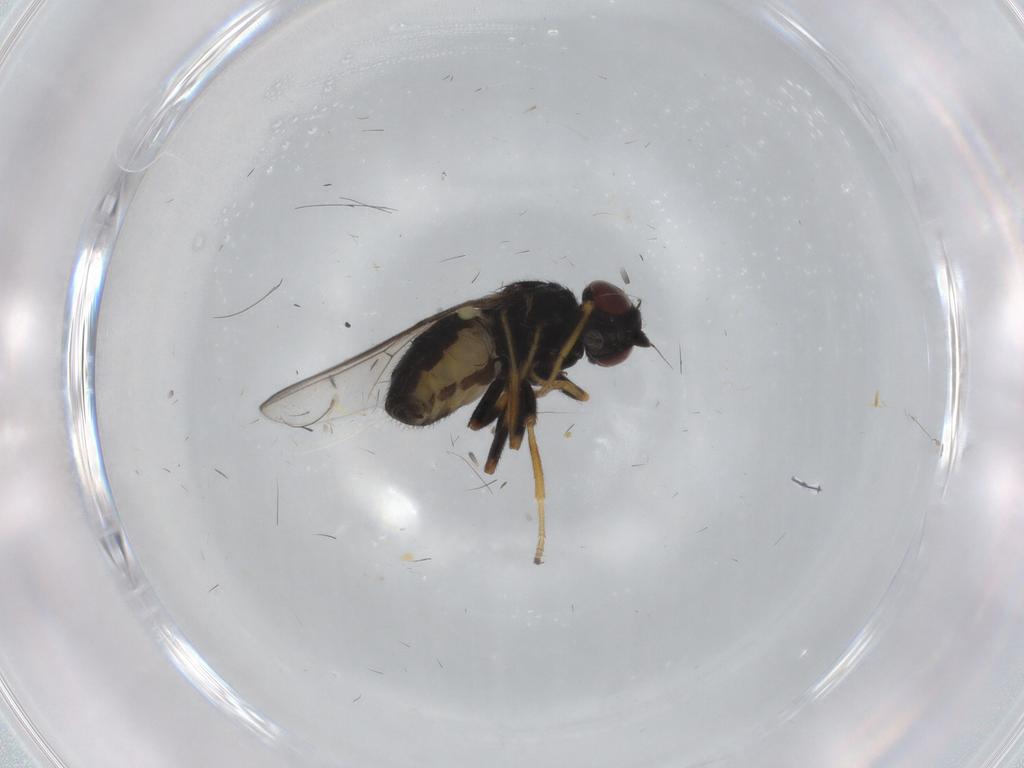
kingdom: Animalia
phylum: Arthropoda
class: Insecta
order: Diptera
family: Chloropidae
